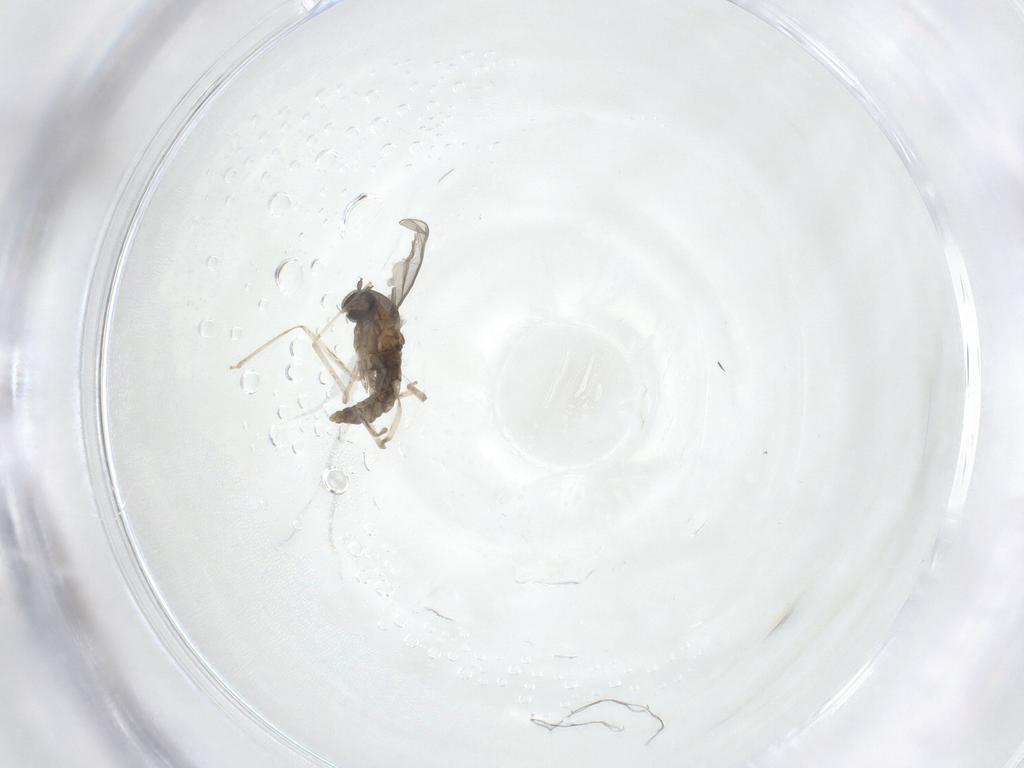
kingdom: Animalia
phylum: Arthropoda
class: Insecta
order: Diptera
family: Cecidomyiidae
